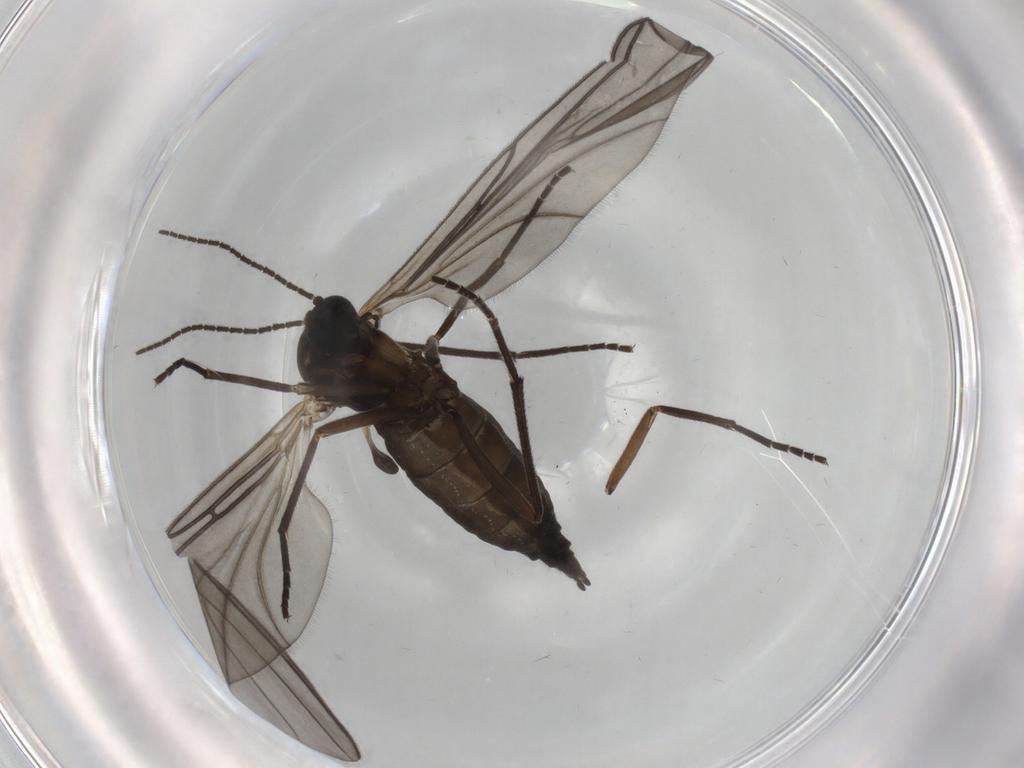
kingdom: Animalia
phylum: Arthropoda
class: Insecta
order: Diptera
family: Sciaridae
